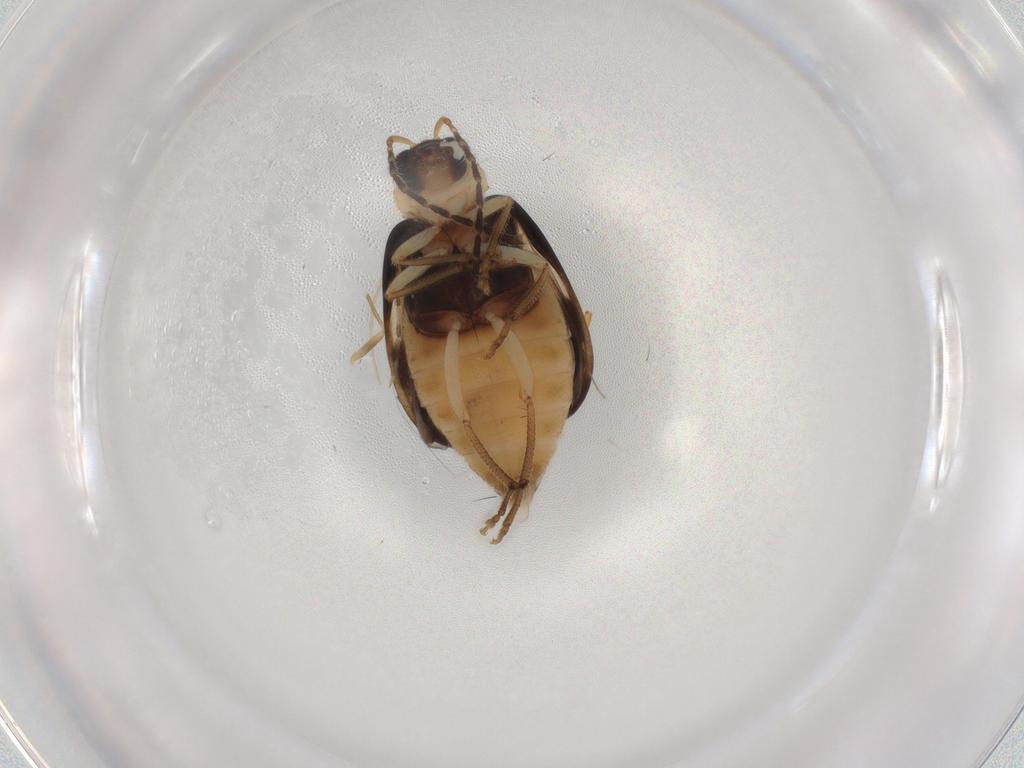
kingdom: Animalia
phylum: Arthropoda
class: Insecta
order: Coleoptera
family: Chrysomelidae
